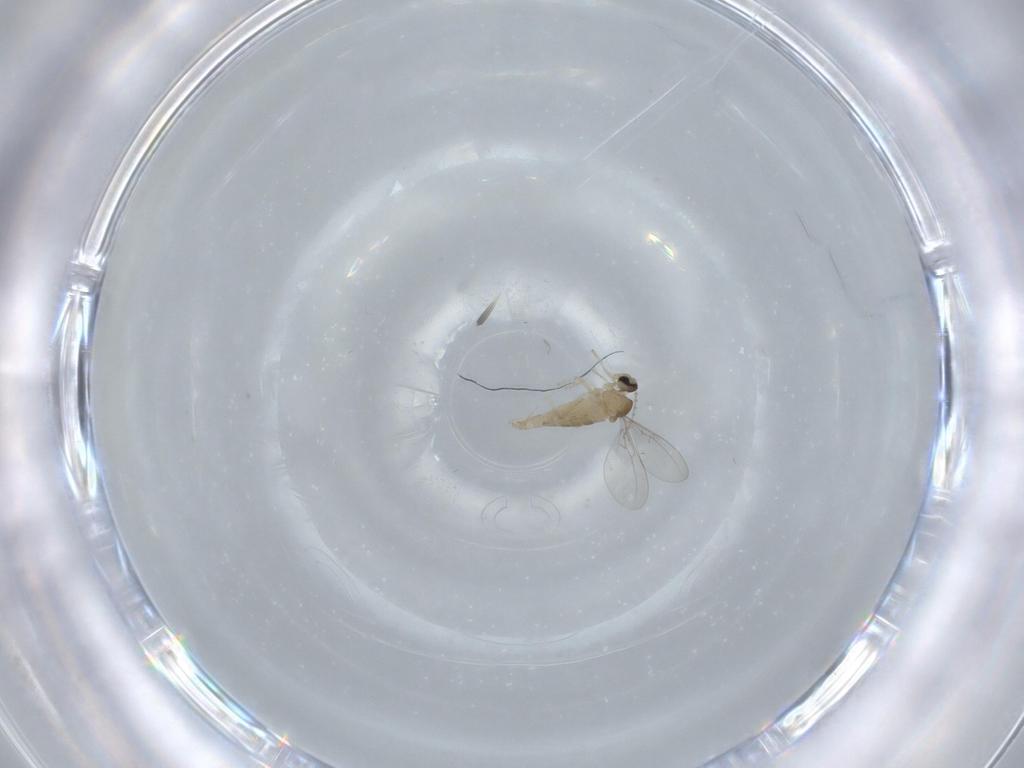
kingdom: Animalia
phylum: Arthropoda
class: Insecta
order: Diptera
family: Cecidomyiidae
